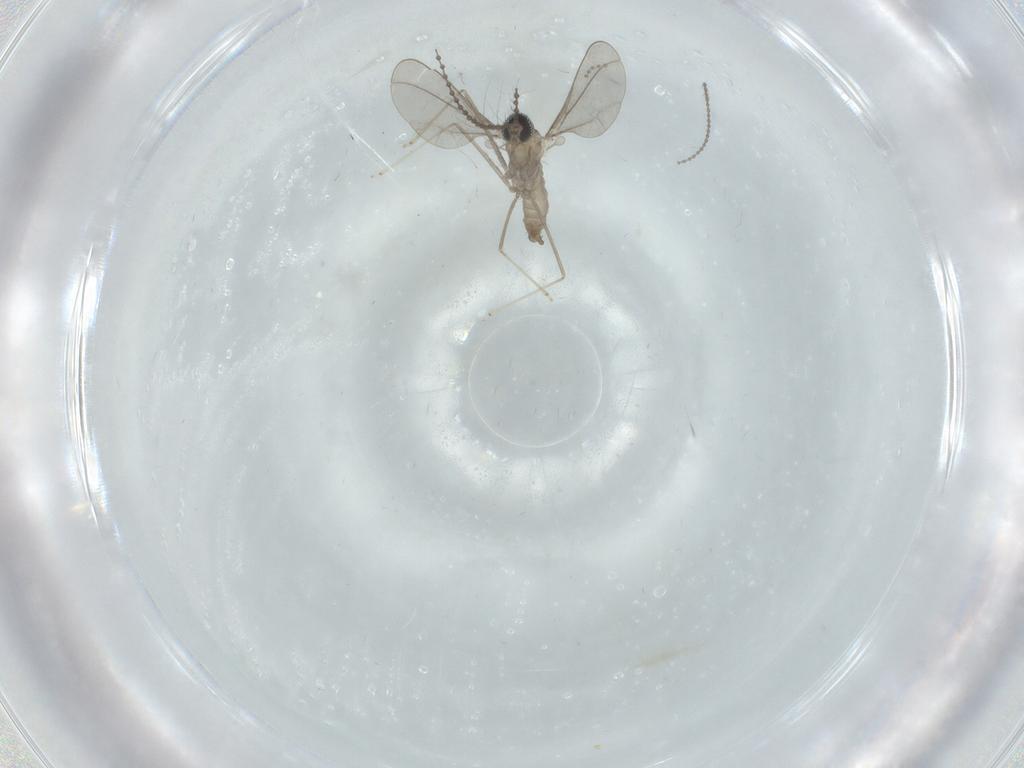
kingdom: Animalia
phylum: Arthropoda
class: Insecta
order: Diptera
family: Cecidomyiidae
